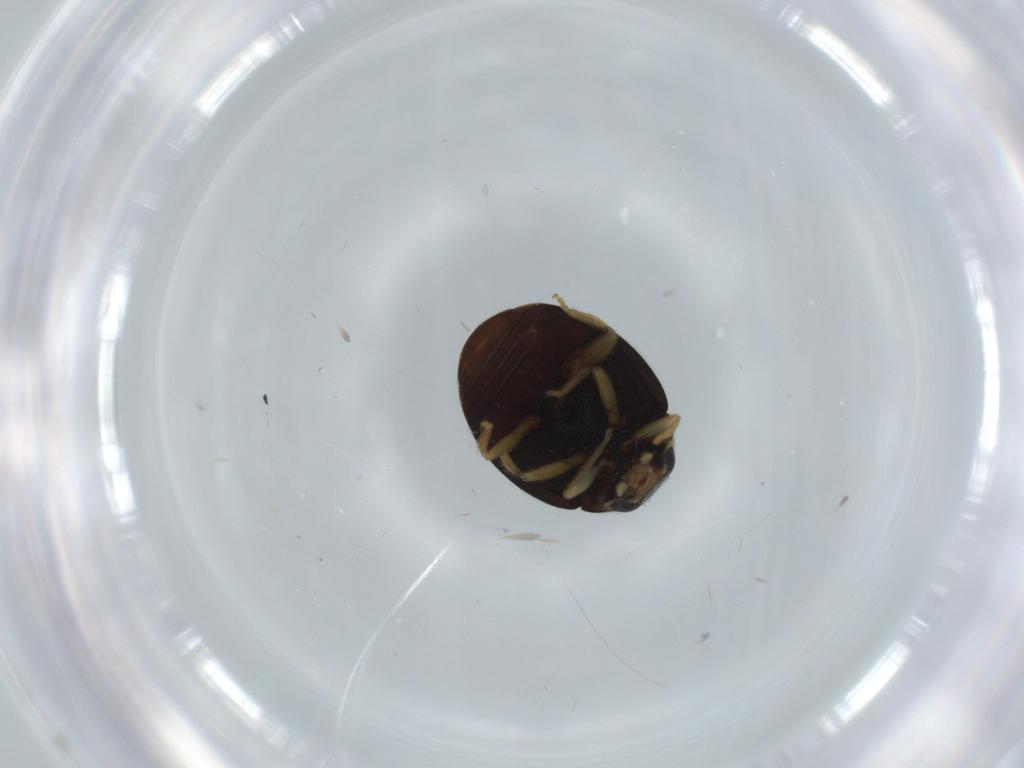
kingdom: Animalia
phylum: Arthropoda
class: Insecta
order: Coleoptera
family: Coccinellidae
